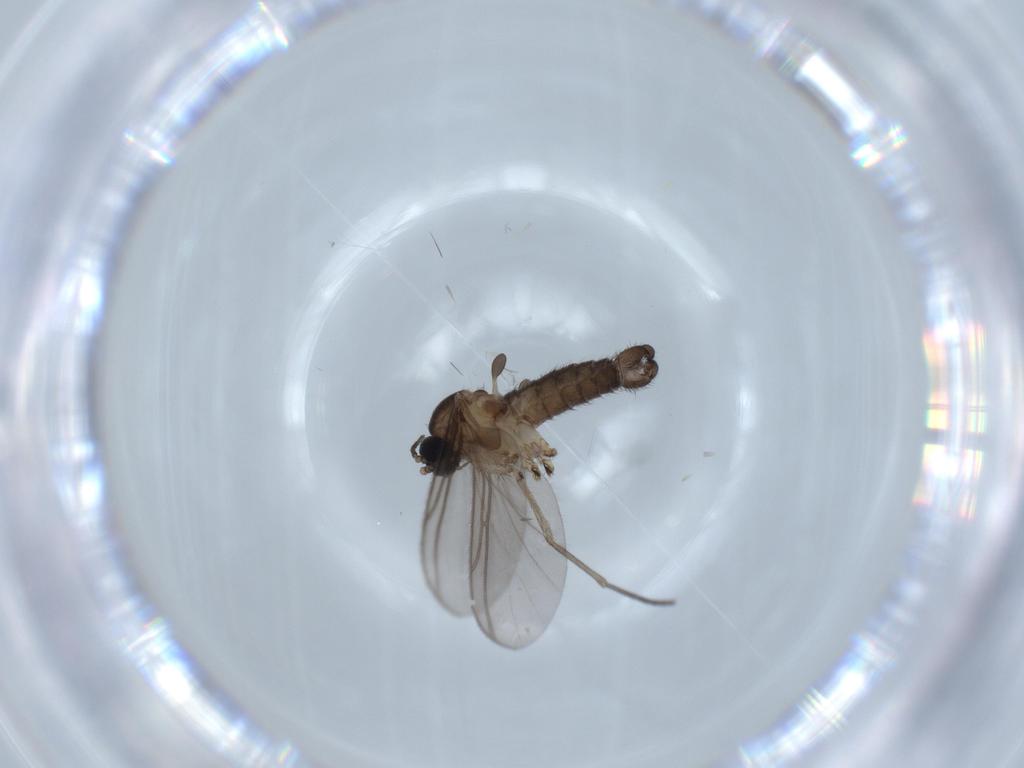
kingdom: Animalia
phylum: Arthropoda
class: Insecta
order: Diptera
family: Sciaridae
